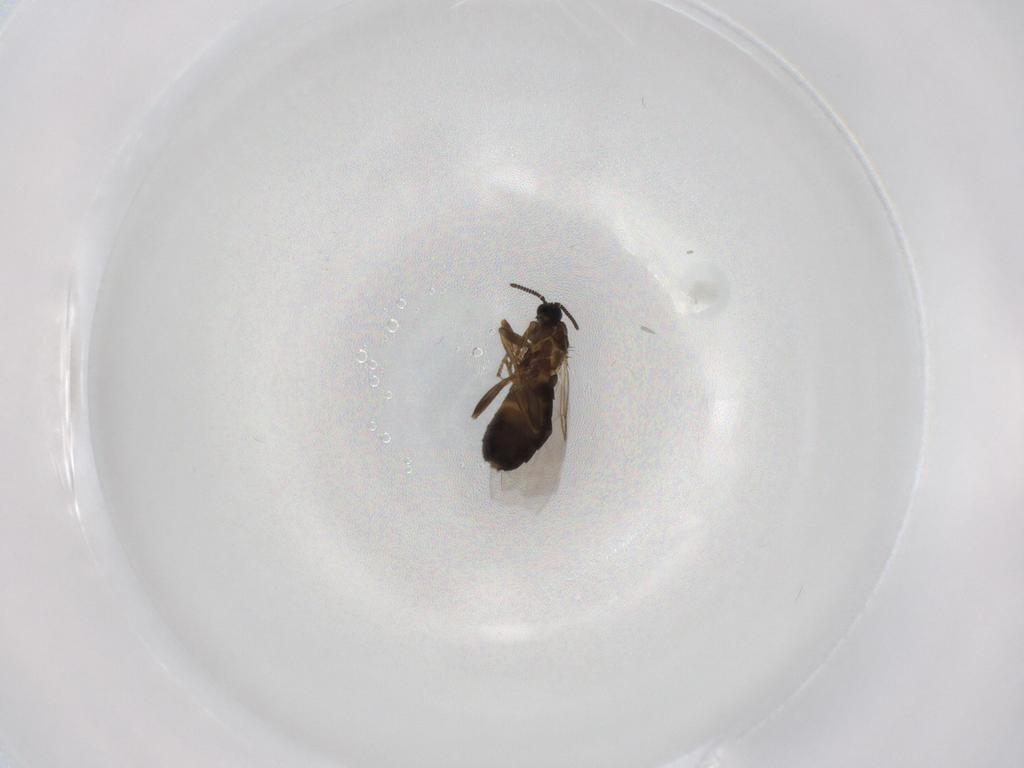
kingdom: Animalia
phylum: Arthropoda
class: Insecta
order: Diptera
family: Scatopsidae
